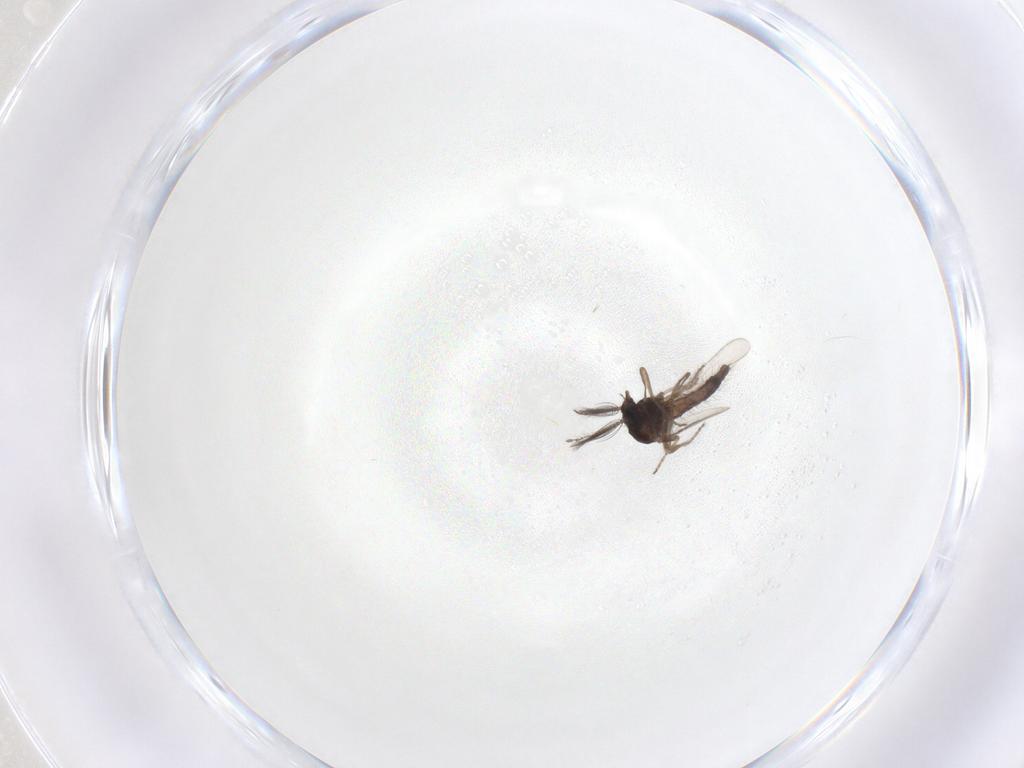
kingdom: Animalia
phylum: Arthropoda
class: Insecta
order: Diptera
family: Ceratopogonidae
